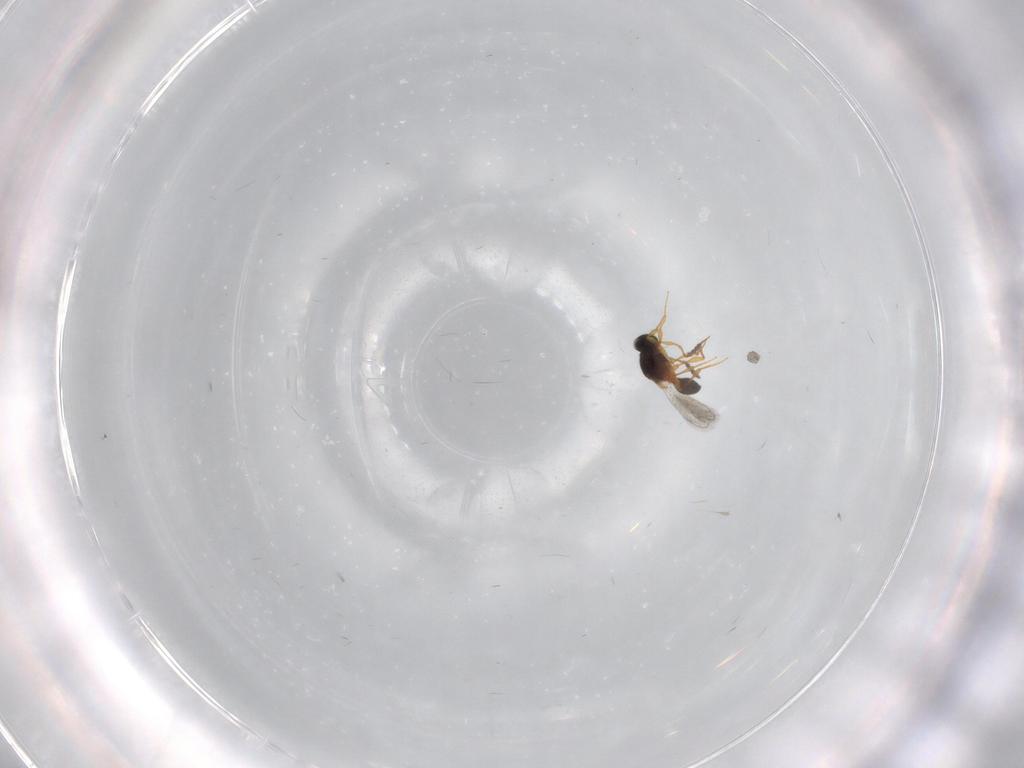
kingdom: Animalia
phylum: Arthropoda
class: Insecta
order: Hymenoptera
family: Platygastridae
